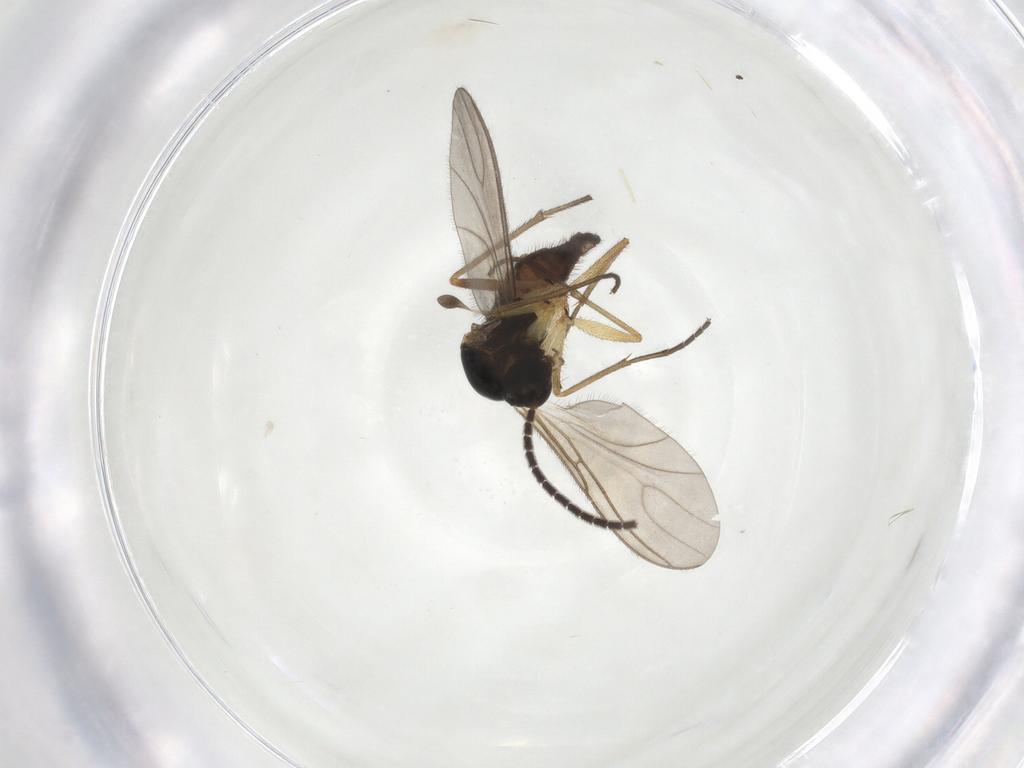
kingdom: Animalia
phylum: Arthropoda
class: Insecta
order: Diptera
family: Sciaridae
